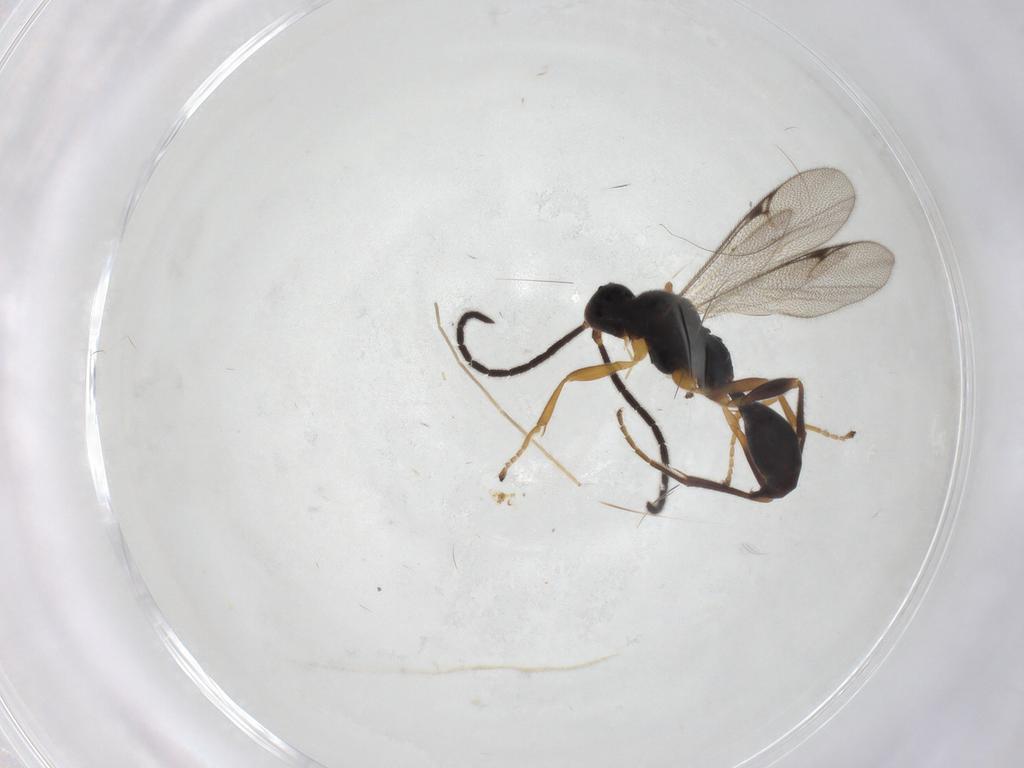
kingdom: Animalia
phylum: Arthropoda
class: Insecta
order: Hymenoptera
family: Proctotrupidae
